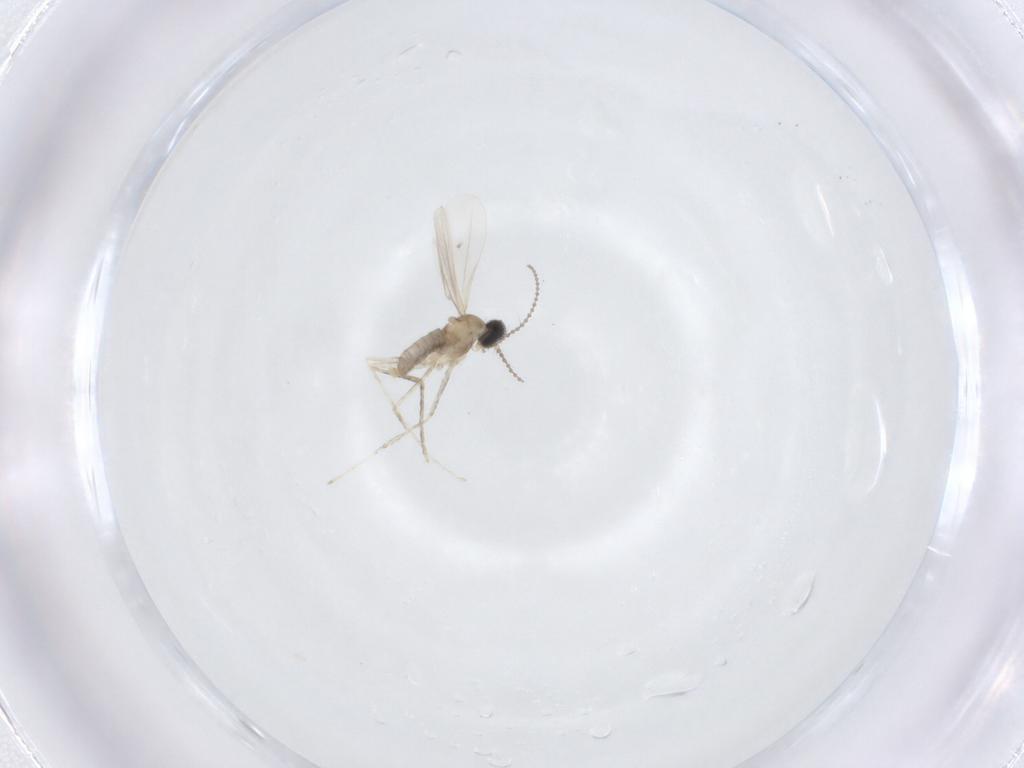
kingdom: Animalia
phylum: Arthropoda
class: Insecta
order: Diptera
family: Cecidomyiidae
